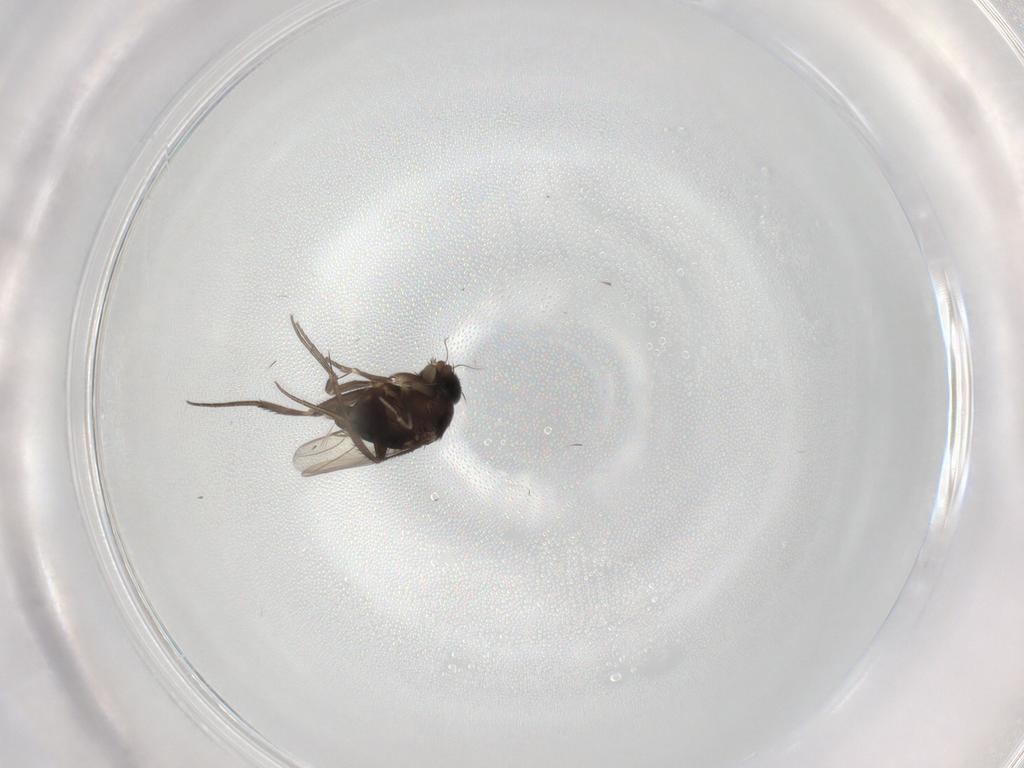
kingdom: Animalia
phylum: Arthropoda
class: Insecta
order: Diptera
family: Phoridae
